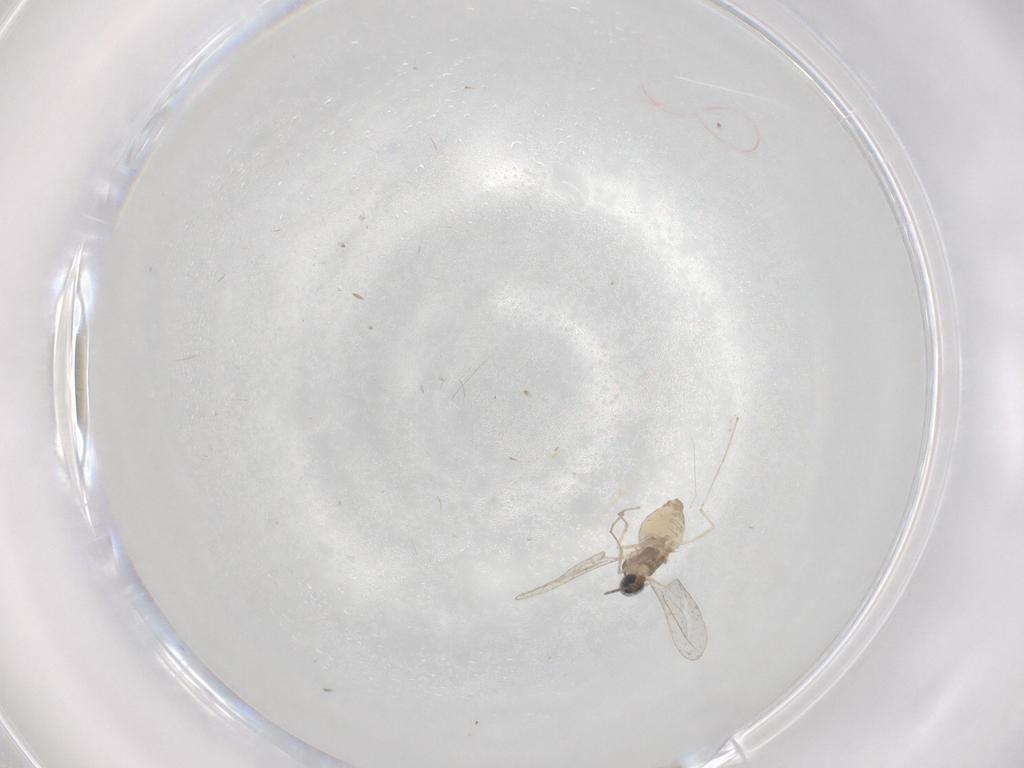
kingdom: Animalia
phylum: Arthropoda
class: Insecta
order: Diptera
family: Cecidomyiidae
